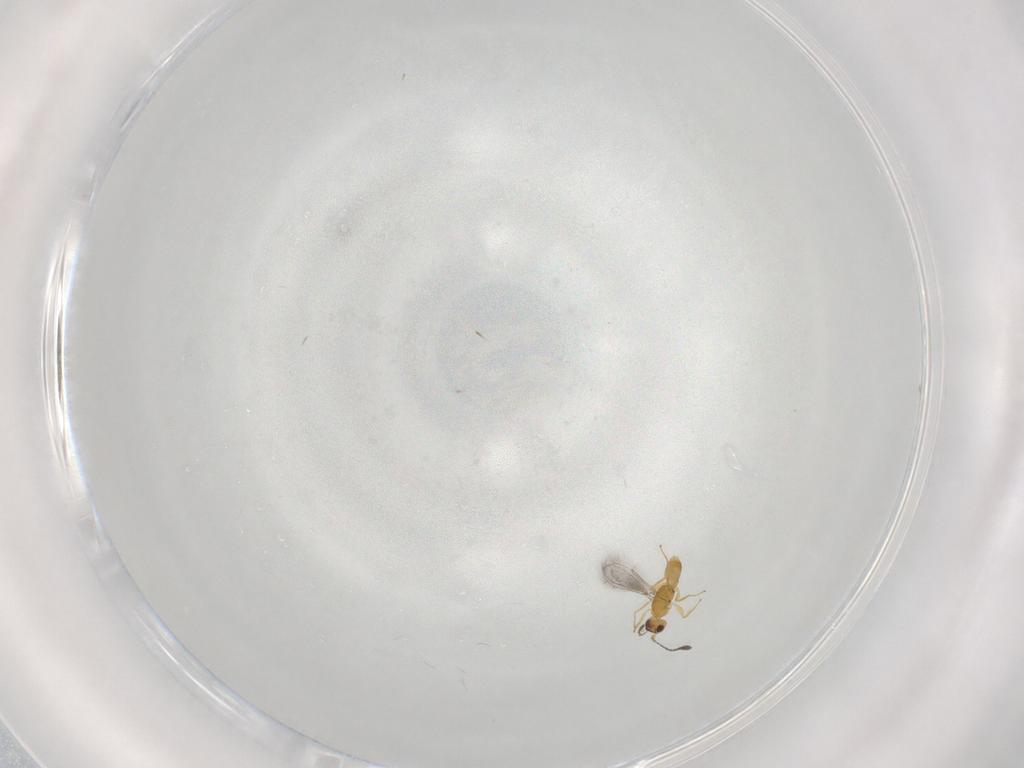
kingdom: Animalia
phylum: Arthropoda
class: Insecta
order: Hymenoptera
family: Mymaridae
